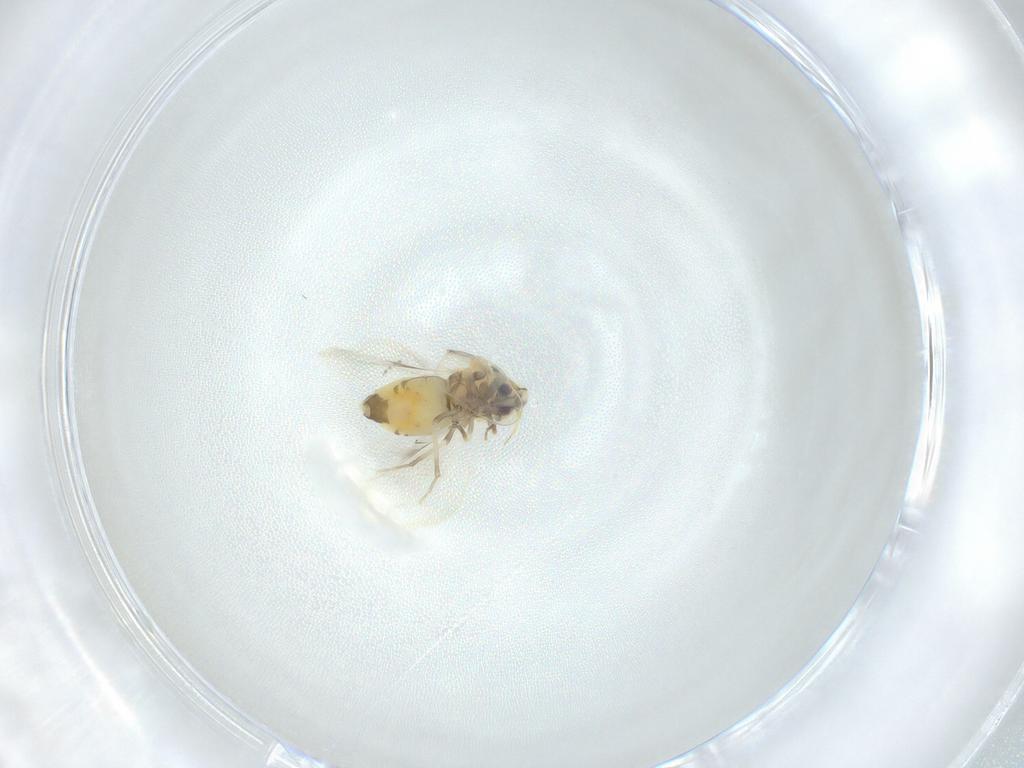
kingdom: Animalia
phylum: Arthropoda
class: Insecta
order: Hemiptera
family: Aleyrodidae
